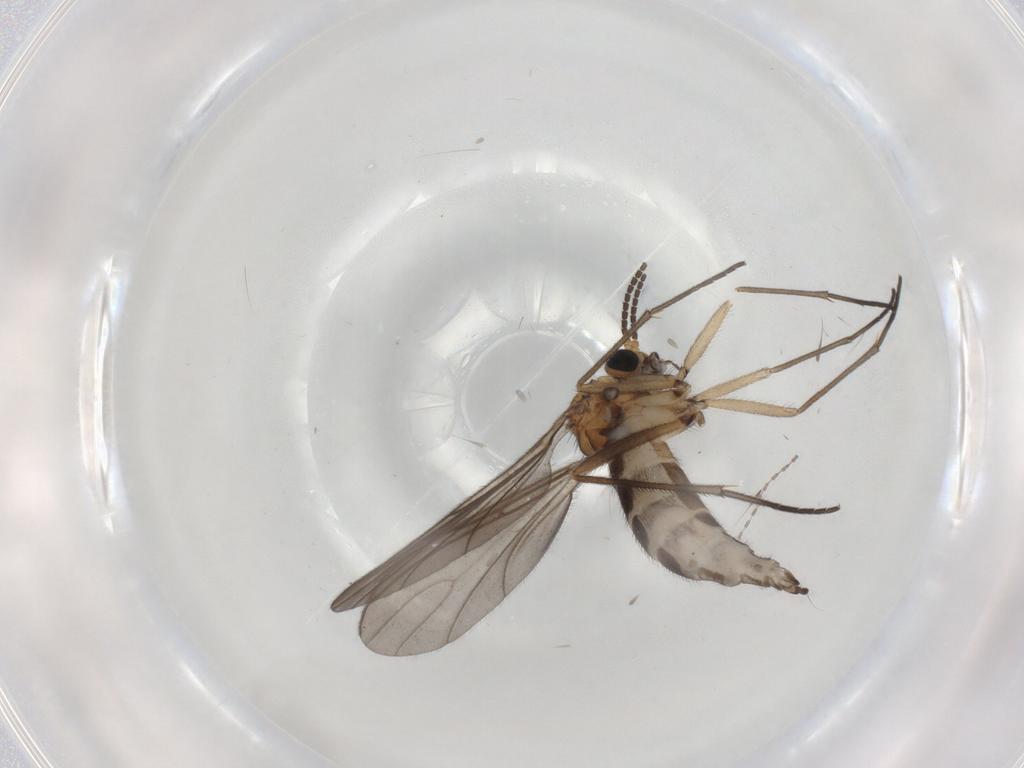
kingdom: Animalia
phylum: Arthropoda
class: Insecta
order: Diptera
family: Sciaridae
